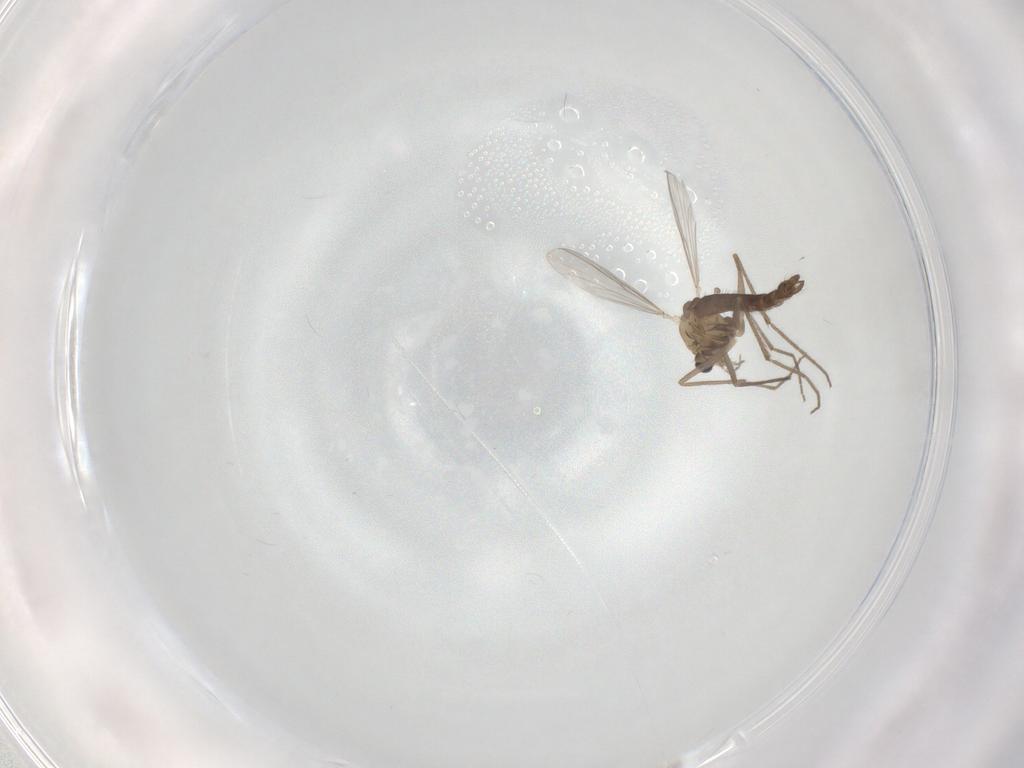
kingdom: Animalia
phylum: Arthropoda
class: Insecta
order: Diptera
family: Chironomidae
